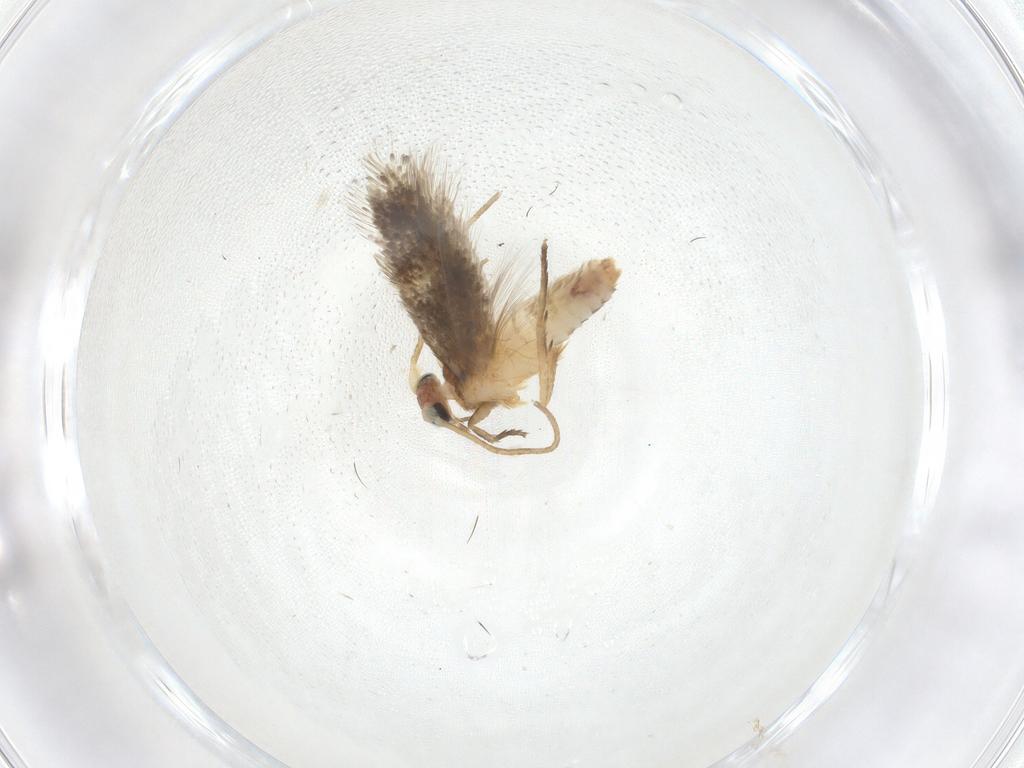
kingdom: Animalia
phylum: Arthropoda
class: Insecta
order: Lepidoptera
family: Nepticulidae
